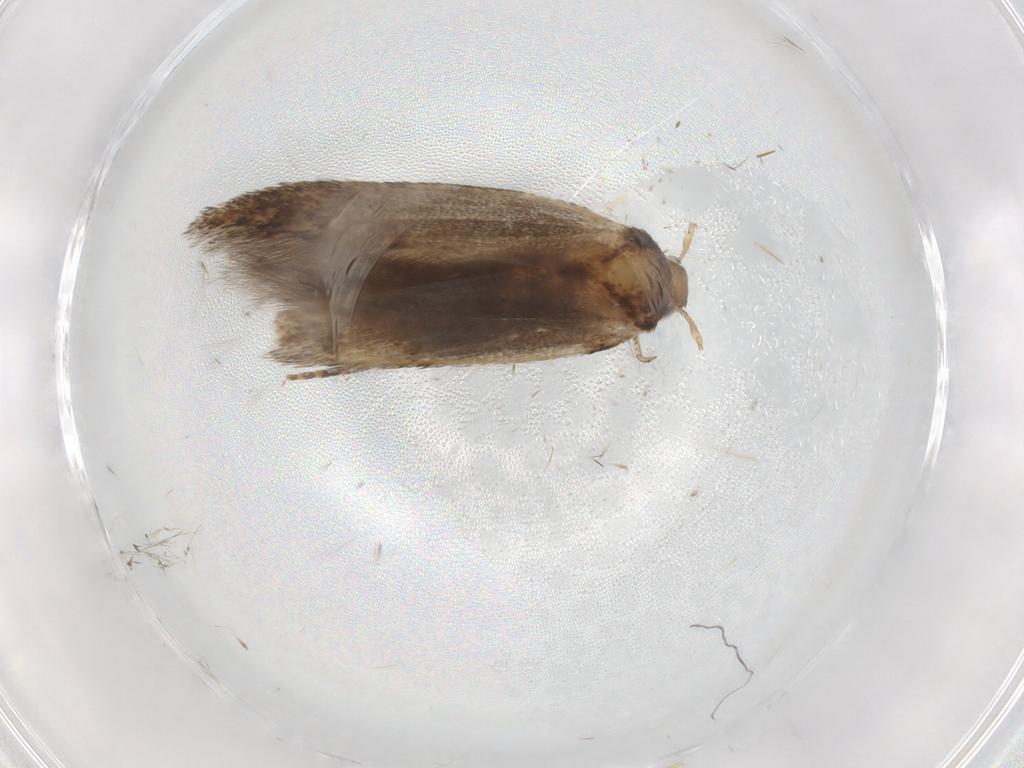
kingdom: Animalia
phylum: Arthropoda
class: Insecta
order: Lepidoptera
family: Cosmopterigidae
